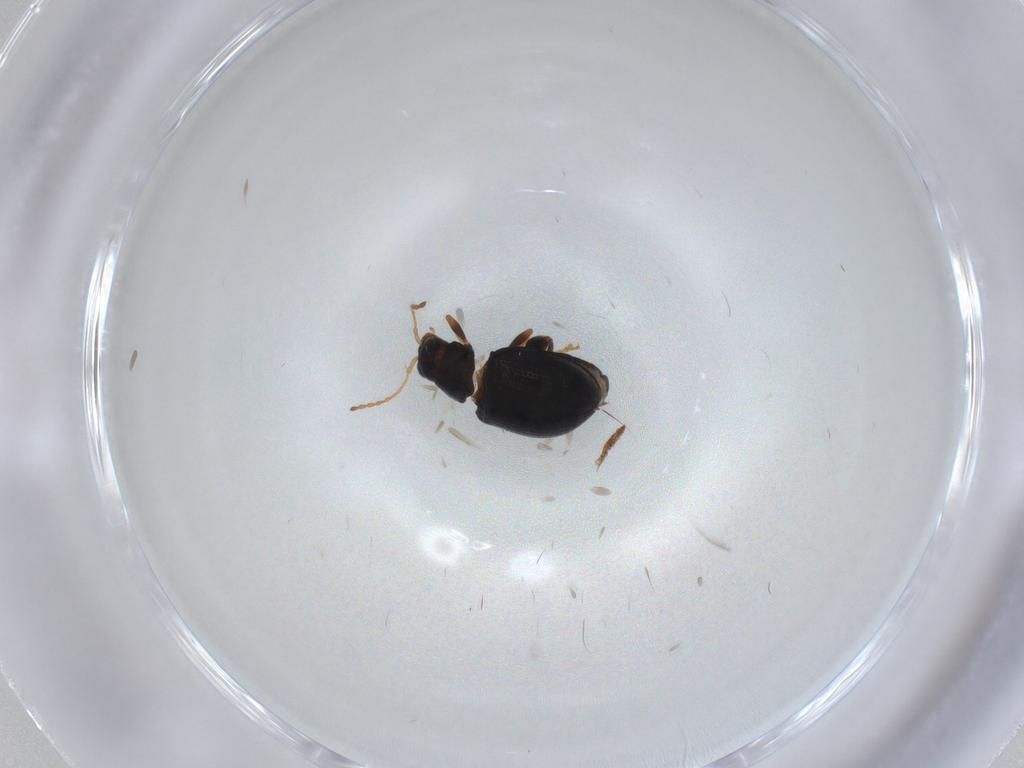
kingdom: Animalia
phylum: Arthropoda
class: Insecta
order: Coleoptera
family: Chrysomelidae
